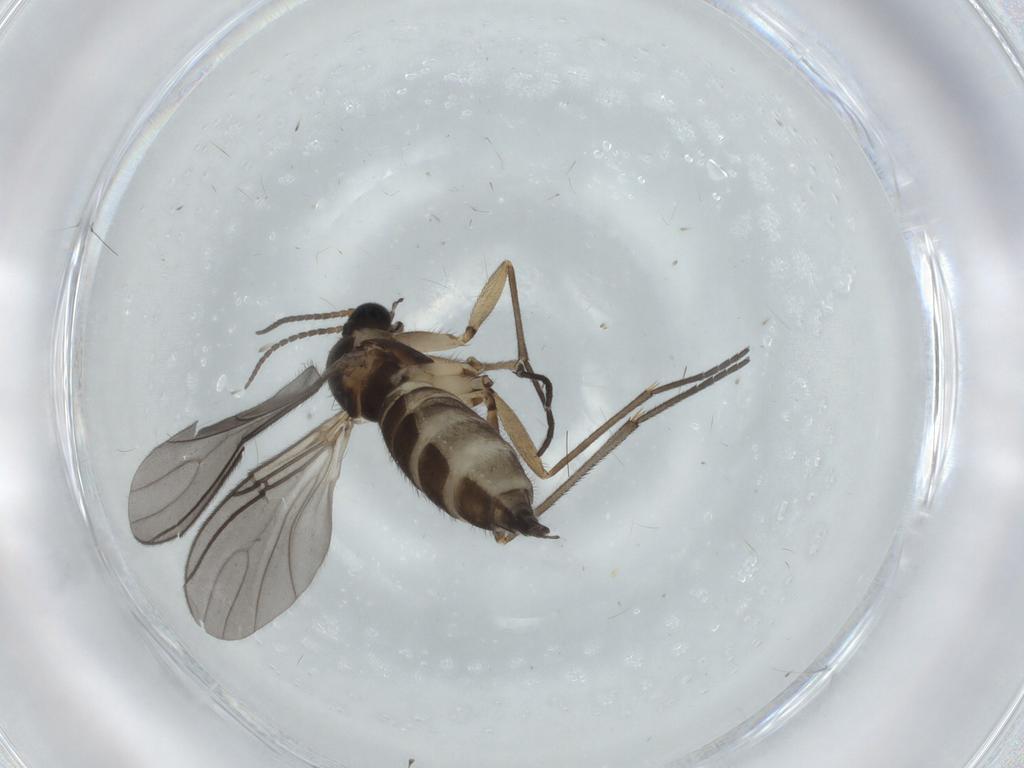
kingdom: Animalia
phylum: Arthropoda
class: Insecta
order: Diptera
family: Sciaridae
